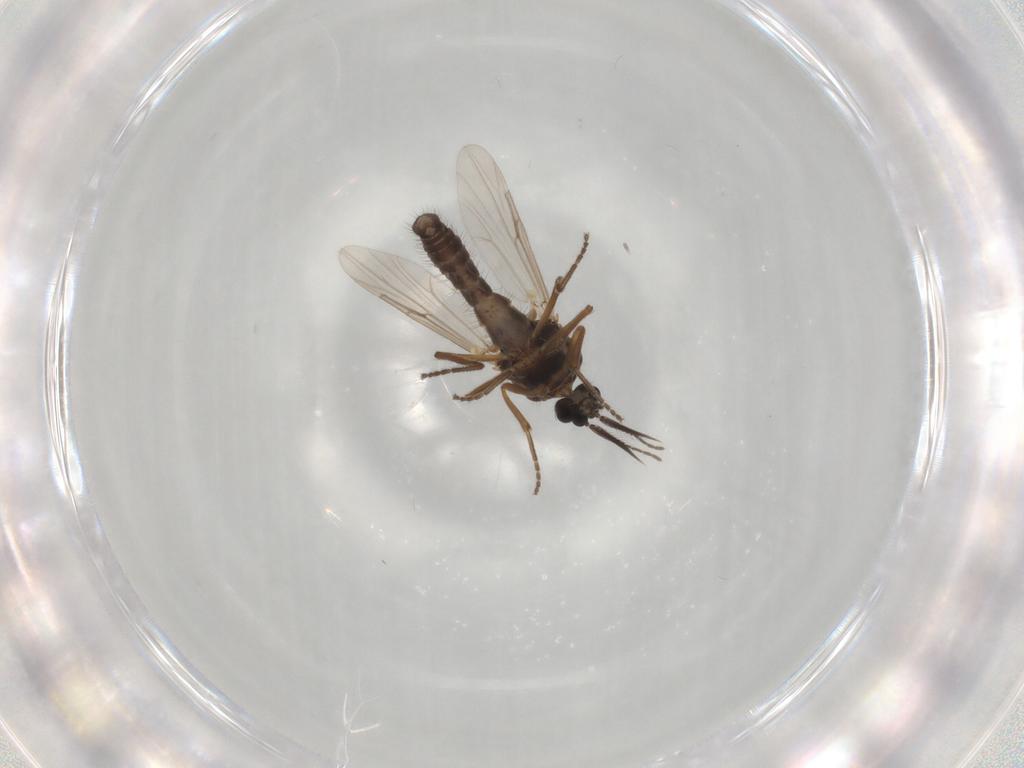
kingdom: Animalia
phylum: Arthropoda
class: Insecta
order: Diptera
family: Ceratopogonidae
